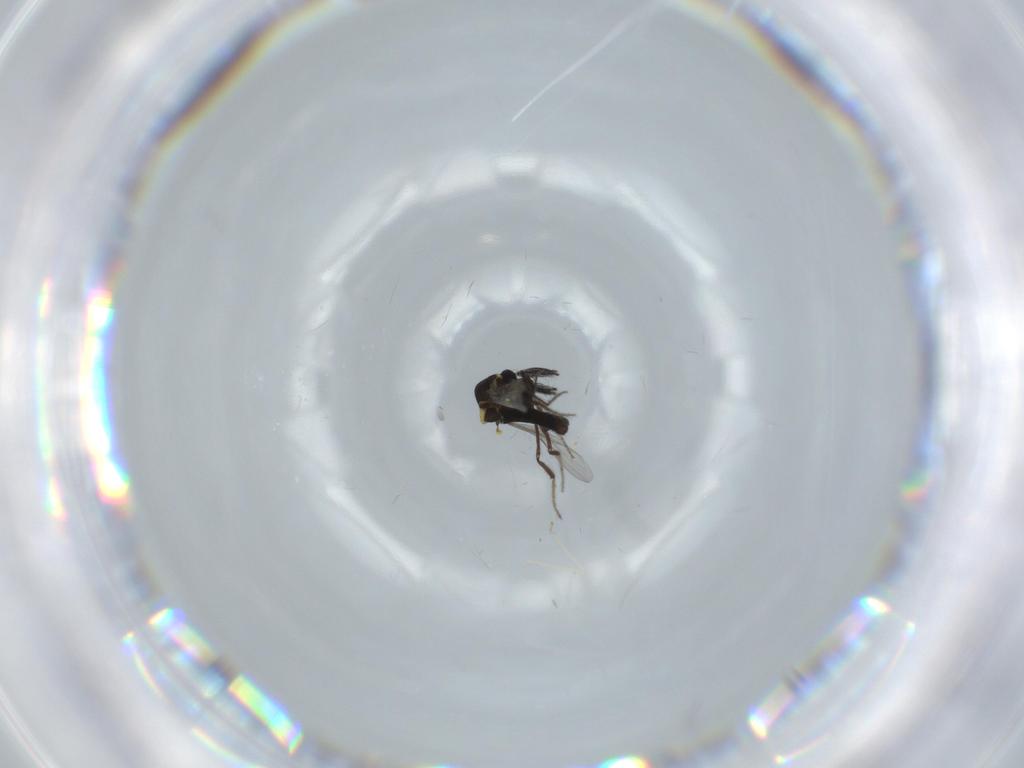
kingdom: Animalia
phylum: Arthropoda
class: Insecta
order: Diptera
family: Ceratopogonidae
